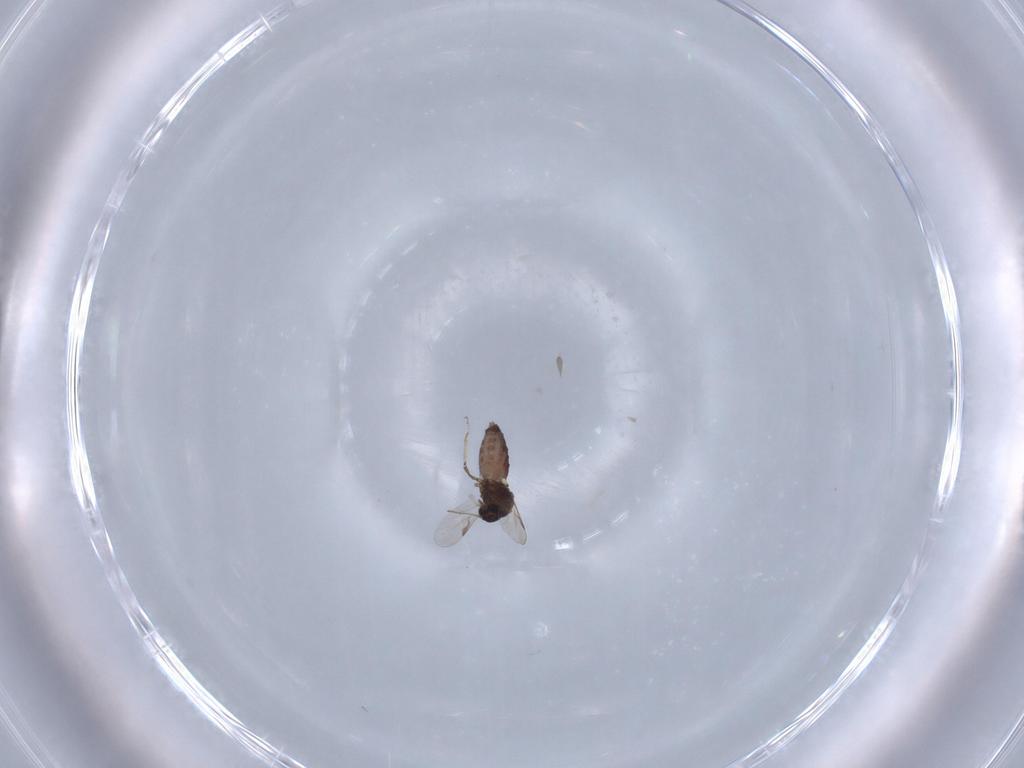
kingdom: Animalia
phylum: Arthropoda
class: Insecta
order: Diptera
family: Ceratopogonidae
